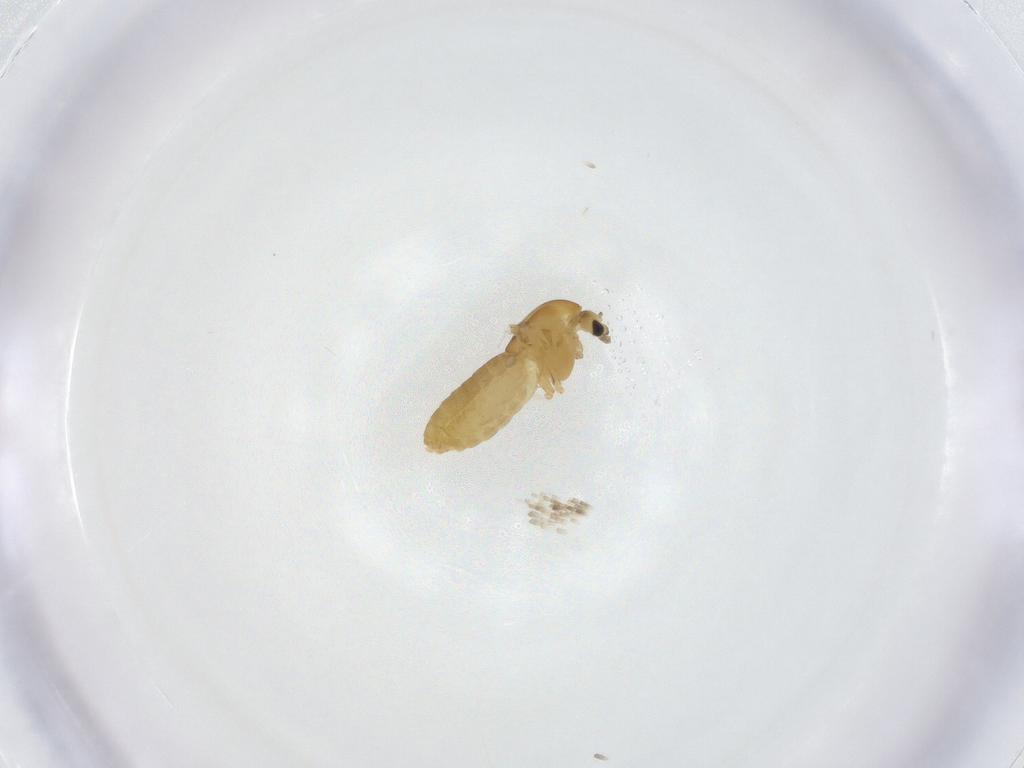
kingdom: Animalia
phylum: Arthropoda
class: Insecta
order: Diptera
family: Chironomidae
